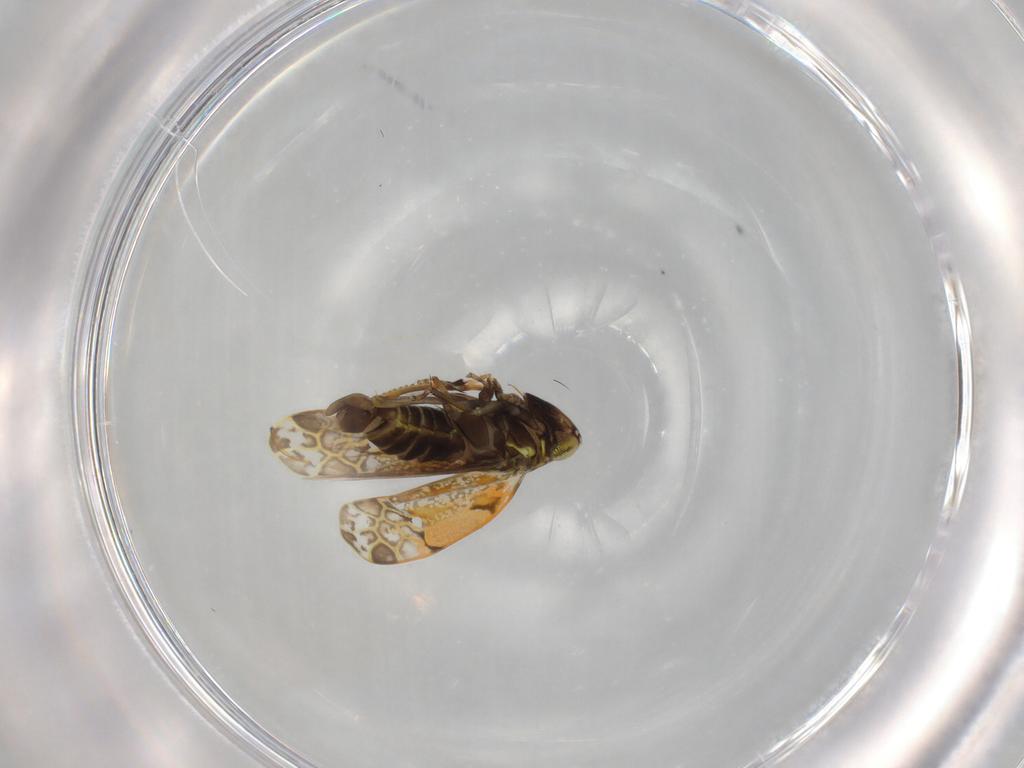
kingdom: Animalia
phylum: Arthropoda
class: Insecta
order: Hemiptera
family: Cicadellidae
